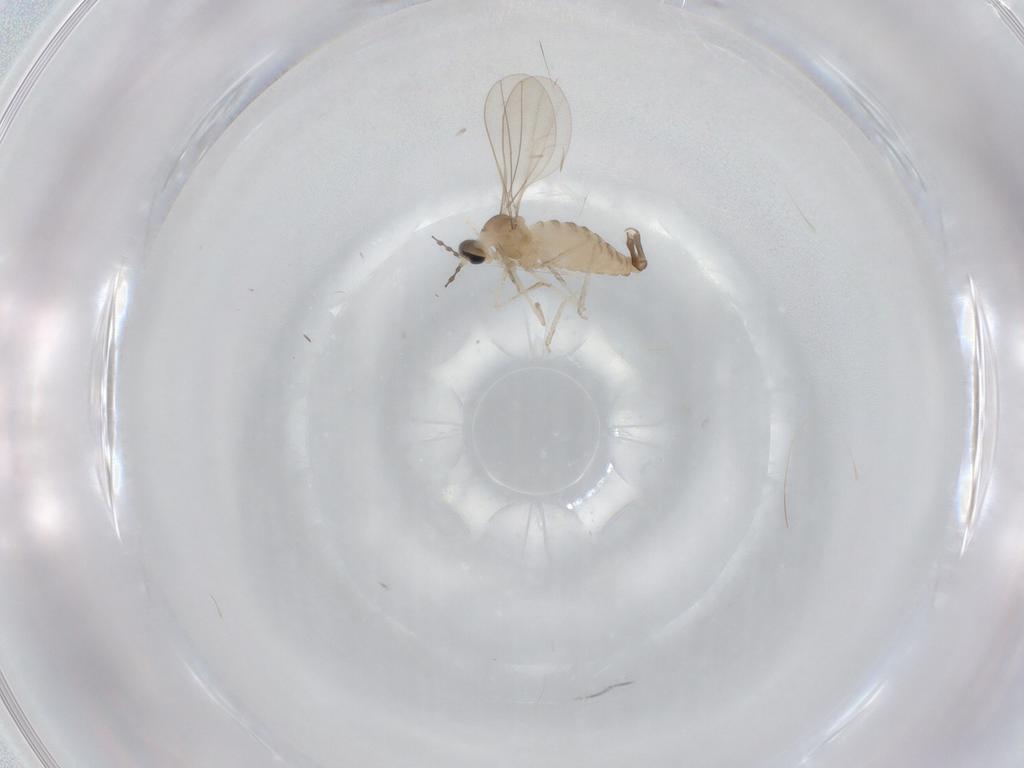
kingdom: Animalia
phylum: Arthropoda
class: Insecta
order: Diptera
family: Cecidomyiidae
